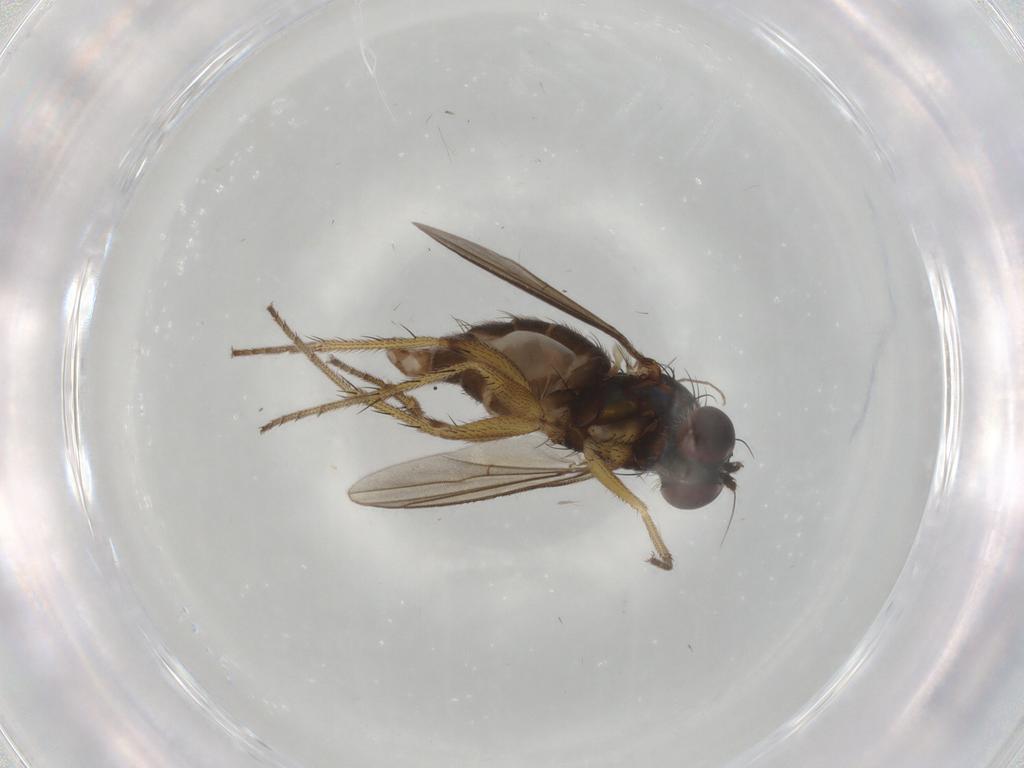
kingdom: Animalia
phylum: Arthropoda
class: Insecta
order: Diptera
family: Dolichopodidae
